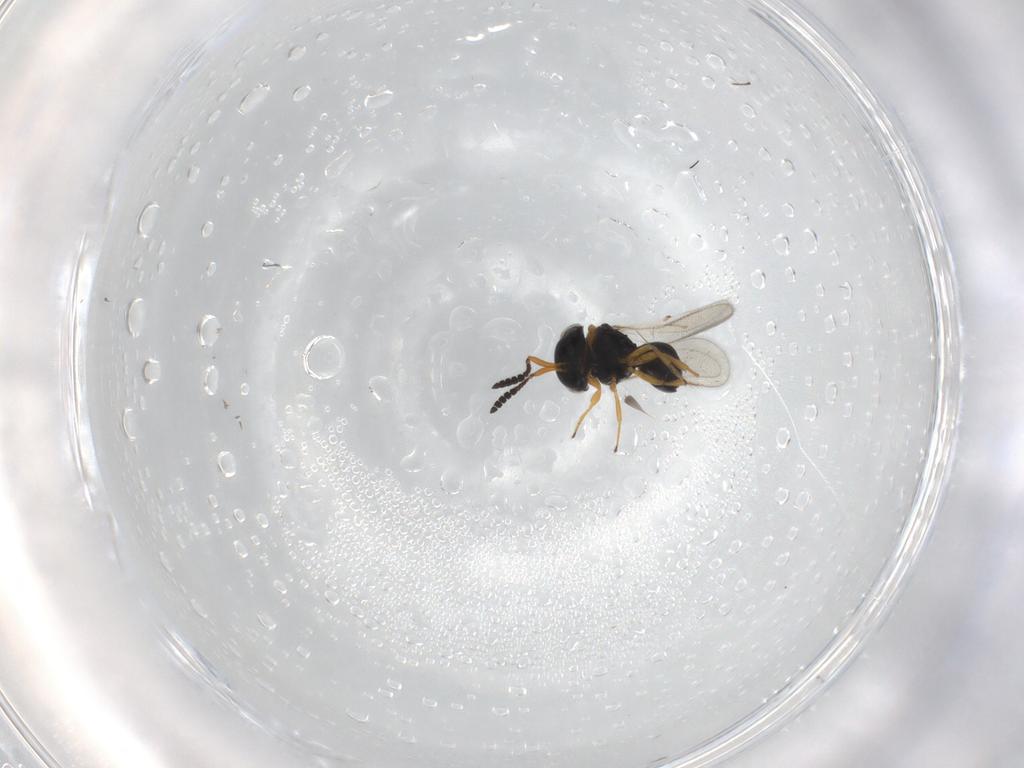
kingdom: Animalia
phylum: Arthropoda
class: Insecta
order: Hymenoptera
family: Scelionidae
